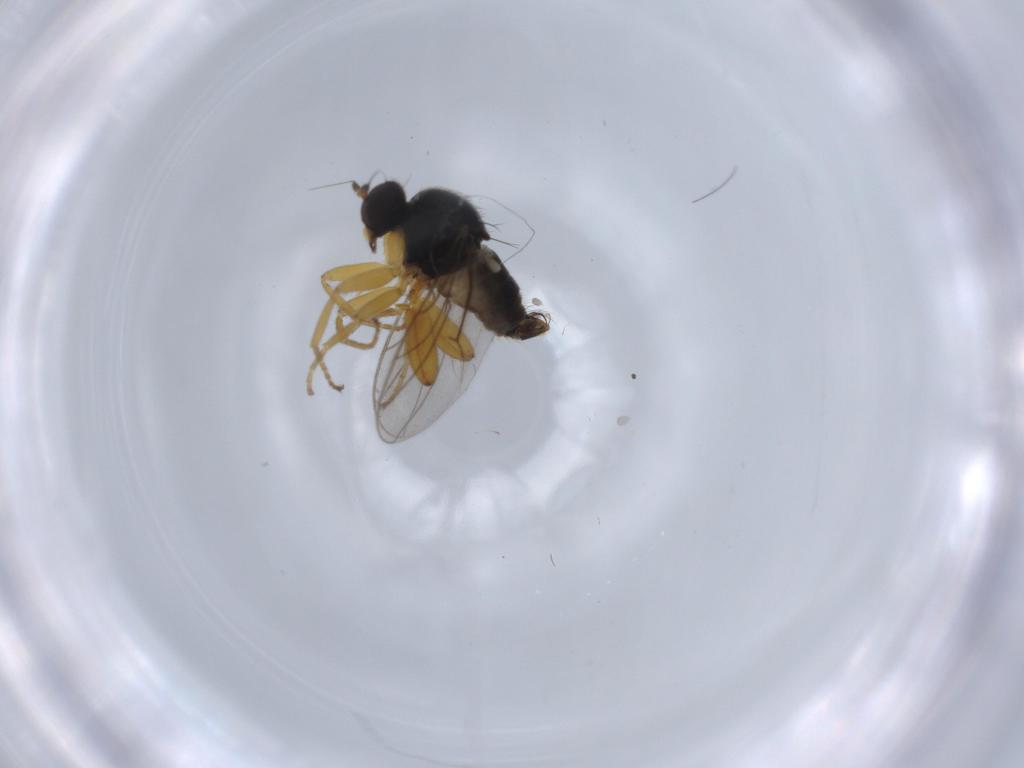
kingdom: Animalia
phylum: Arthropoda
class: Insecta
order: Diptera
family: Hybotidae
